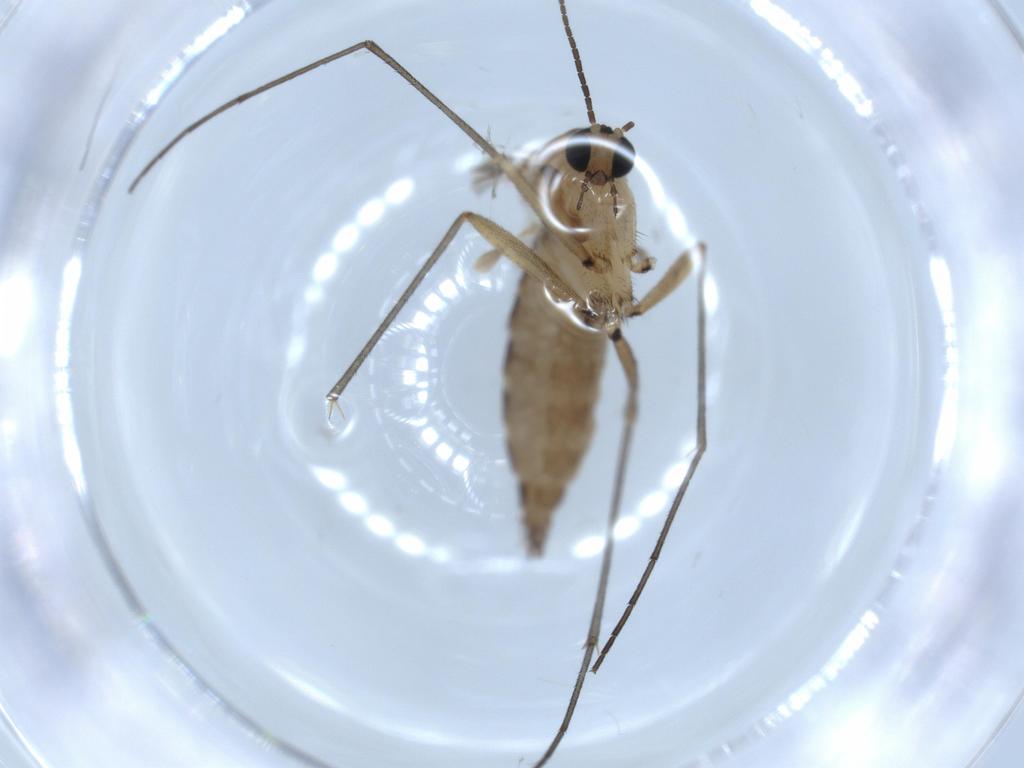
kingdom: Animalia
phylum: Arthropoda
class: Insecta
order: Diptera
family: Sciaridae
